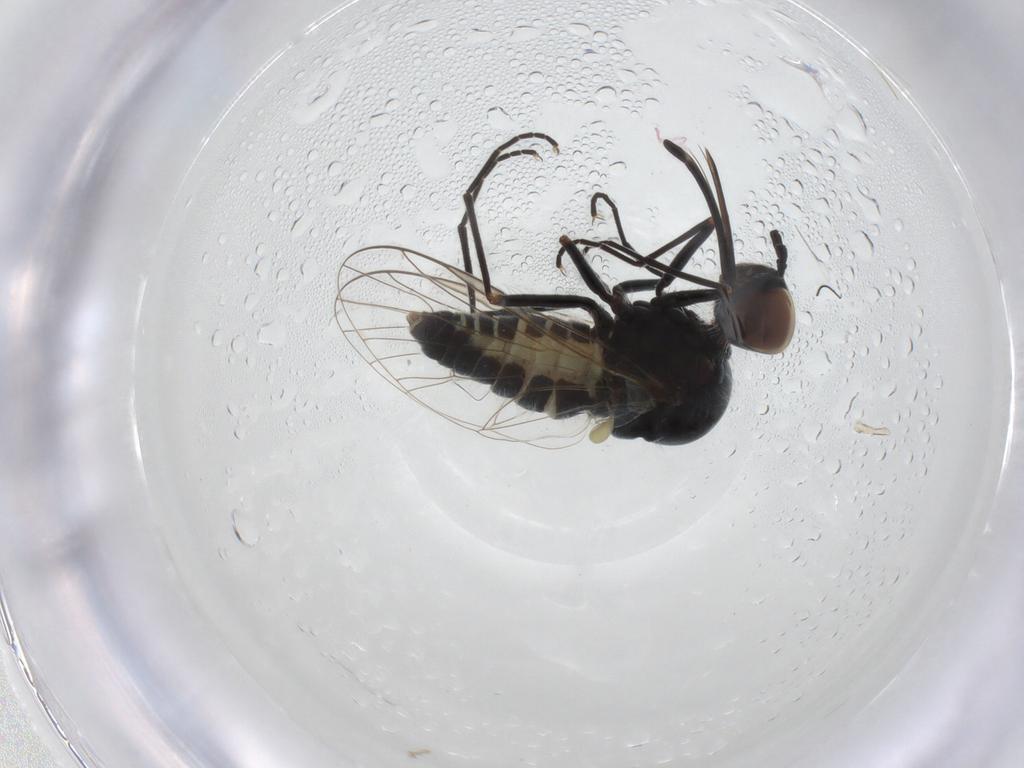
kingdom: Animalia
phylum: Arthropoda
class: Insecta
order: Diptera
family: Bombyliidae
